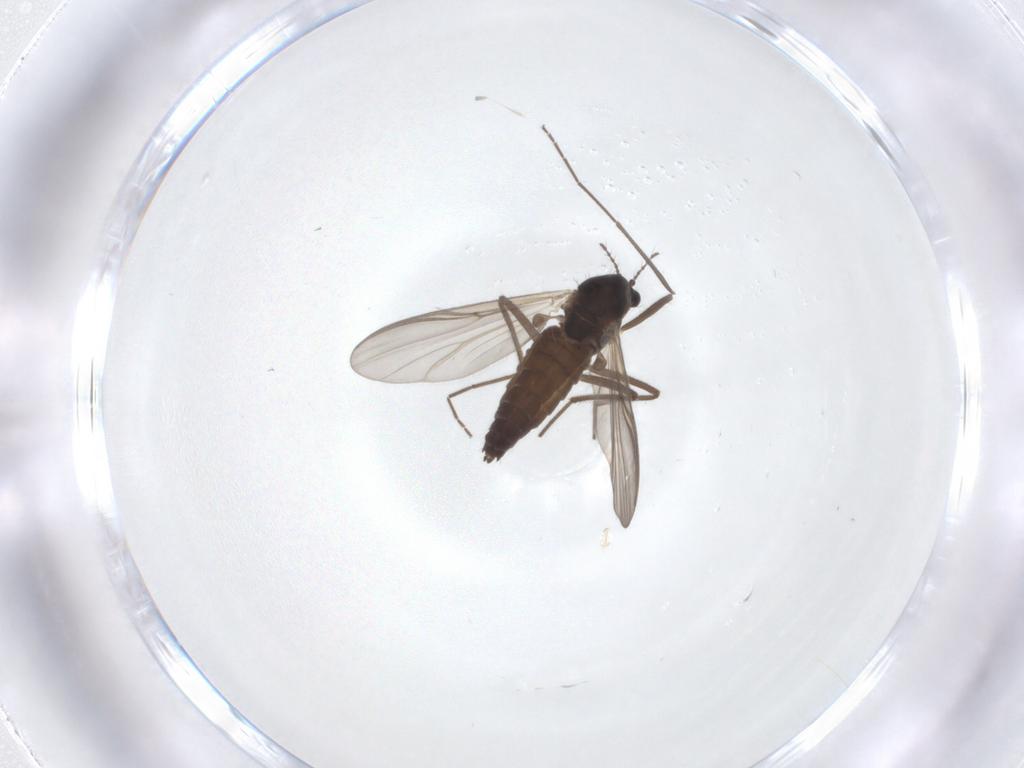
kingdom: Animalia
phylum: Arthropoda
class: Insecta
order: Diptera
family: Chironomidae
